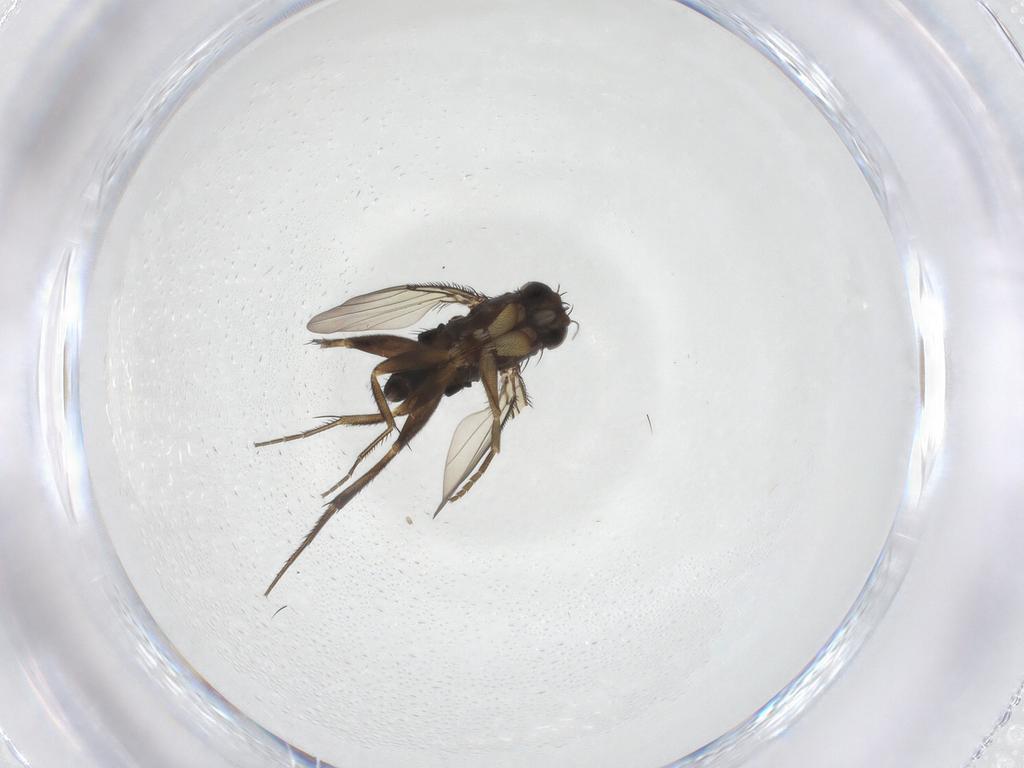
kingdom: Animalia
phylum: Arthropoda
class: Insecta
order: Diptera
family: Phoridae
